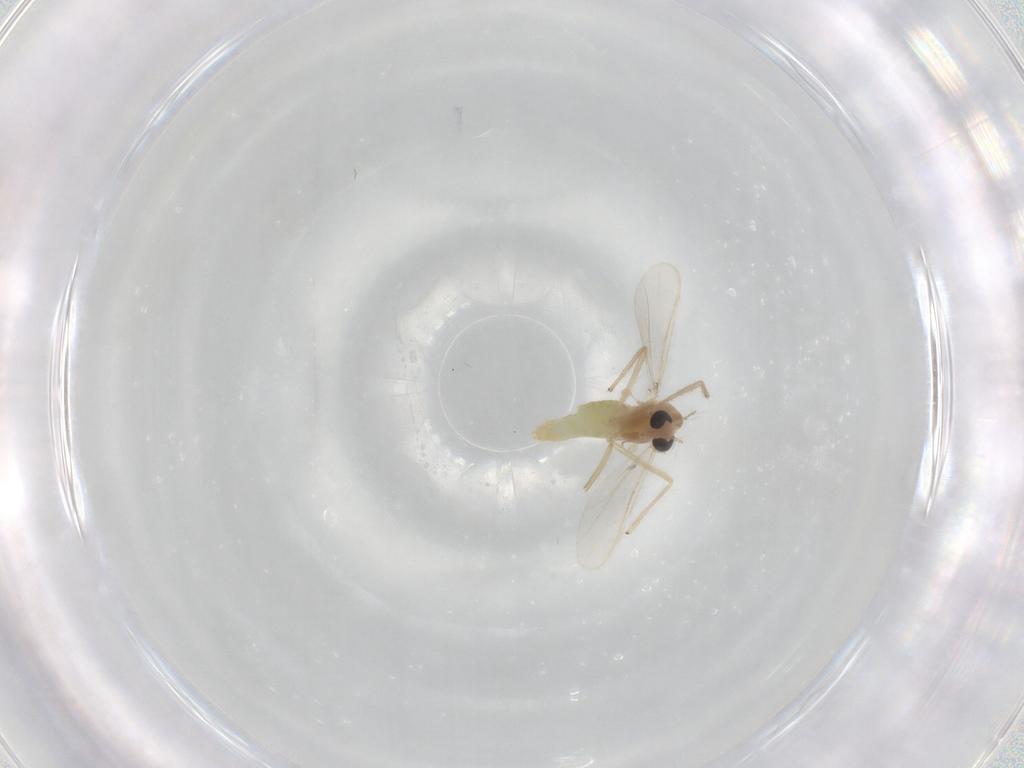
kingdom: Animalia
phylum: Arthropoda
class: Insecta
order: Diptera
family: Chironomidae
